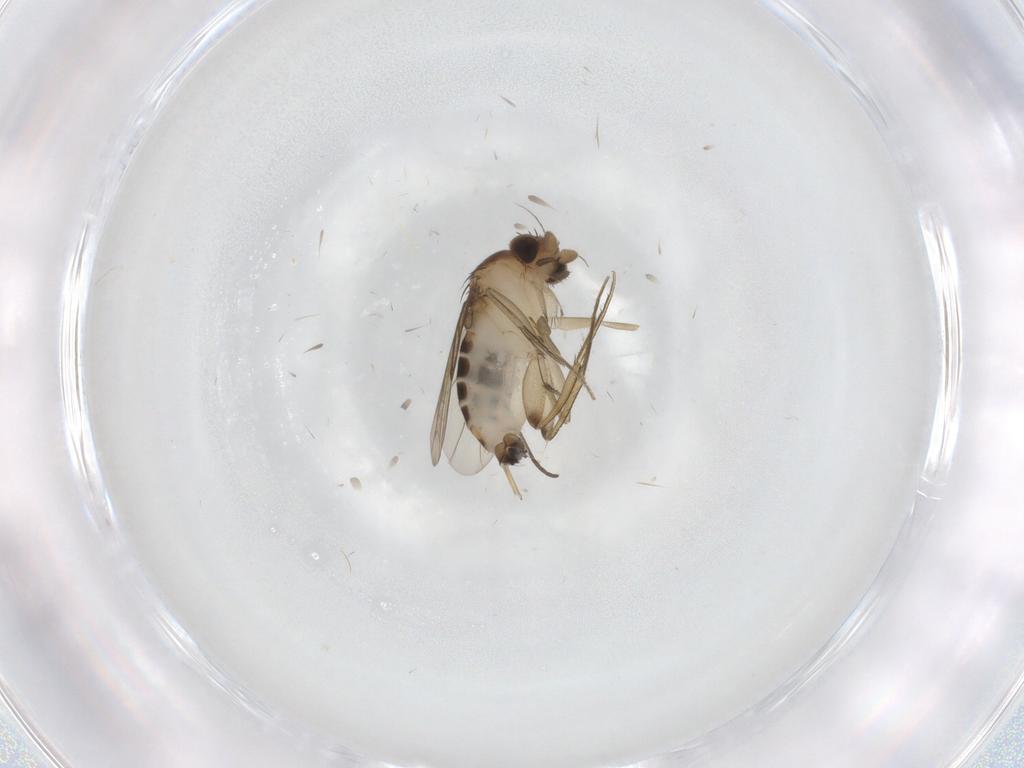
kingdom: Animalia
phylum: Arthropoda
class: Insecta
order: Diptera
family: Phoridae
